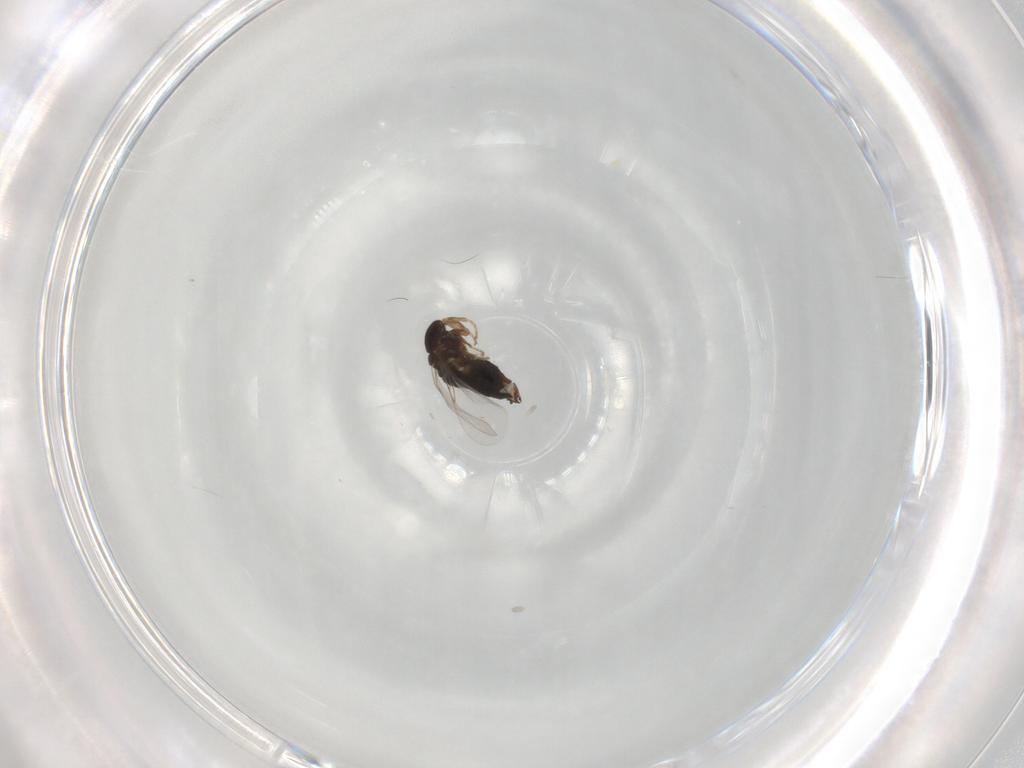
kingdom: Animalia
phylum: Arthropoda
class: Insecta
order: Diptera
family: Scatopsidae
